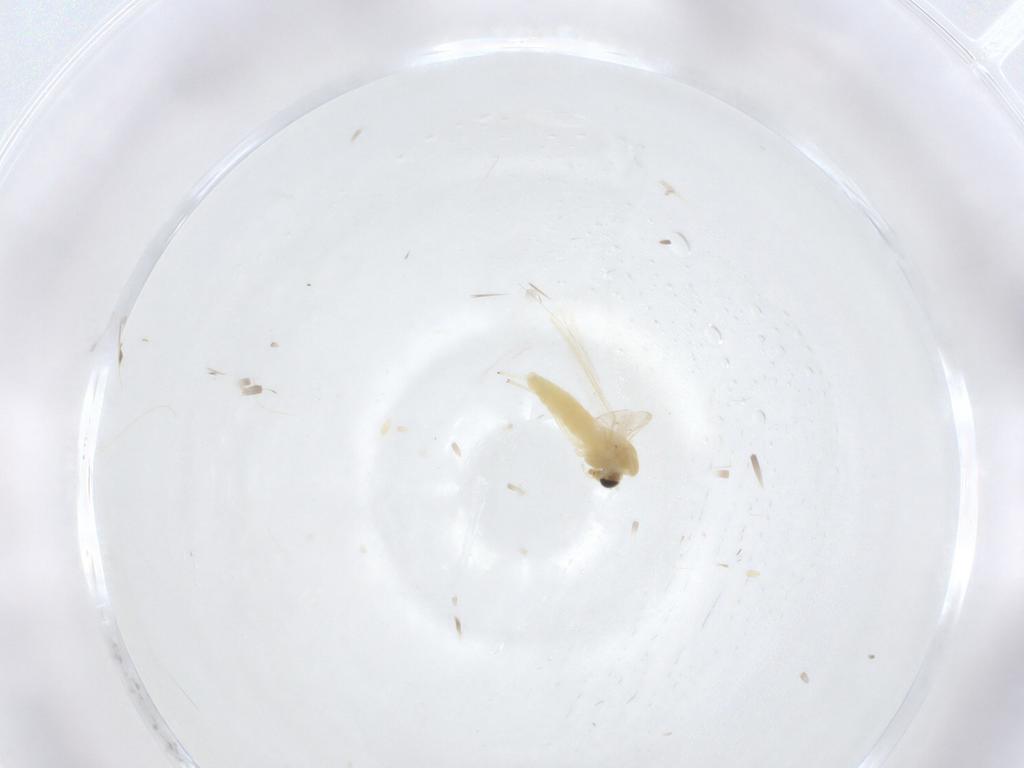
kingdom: Animalia
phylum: Arthropoda
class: Insecta
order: Diptera
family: Chironomidae
